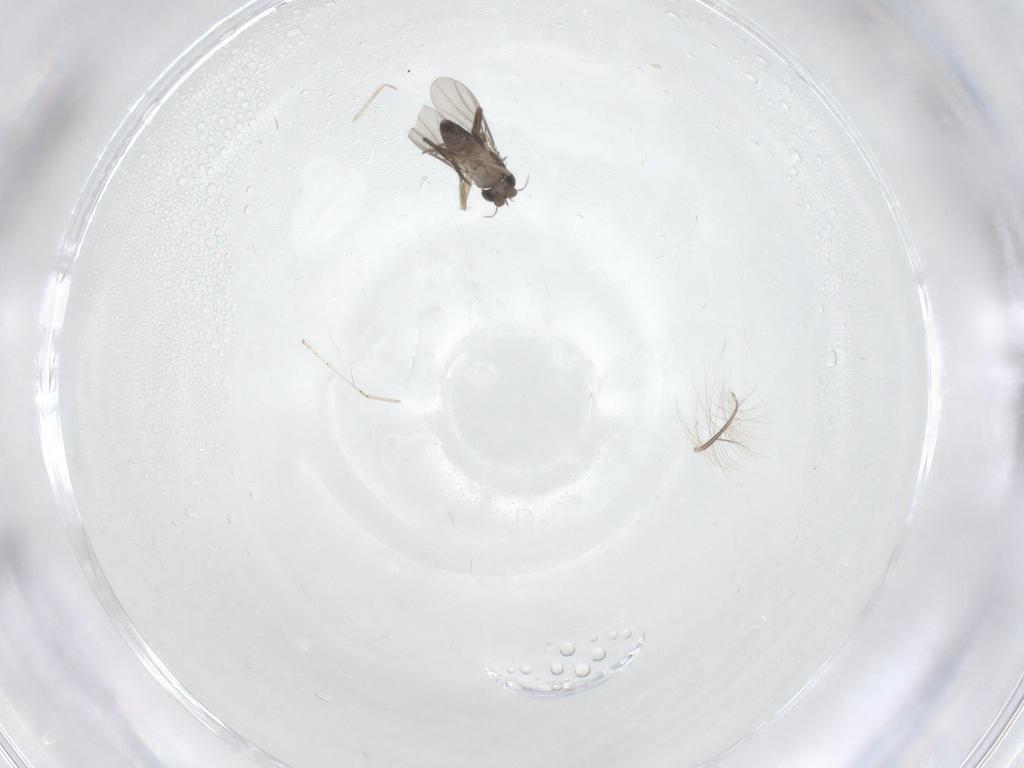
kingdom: Animalia
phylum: Arthropoda
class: Insecta
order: Diptera
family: Phoridae
